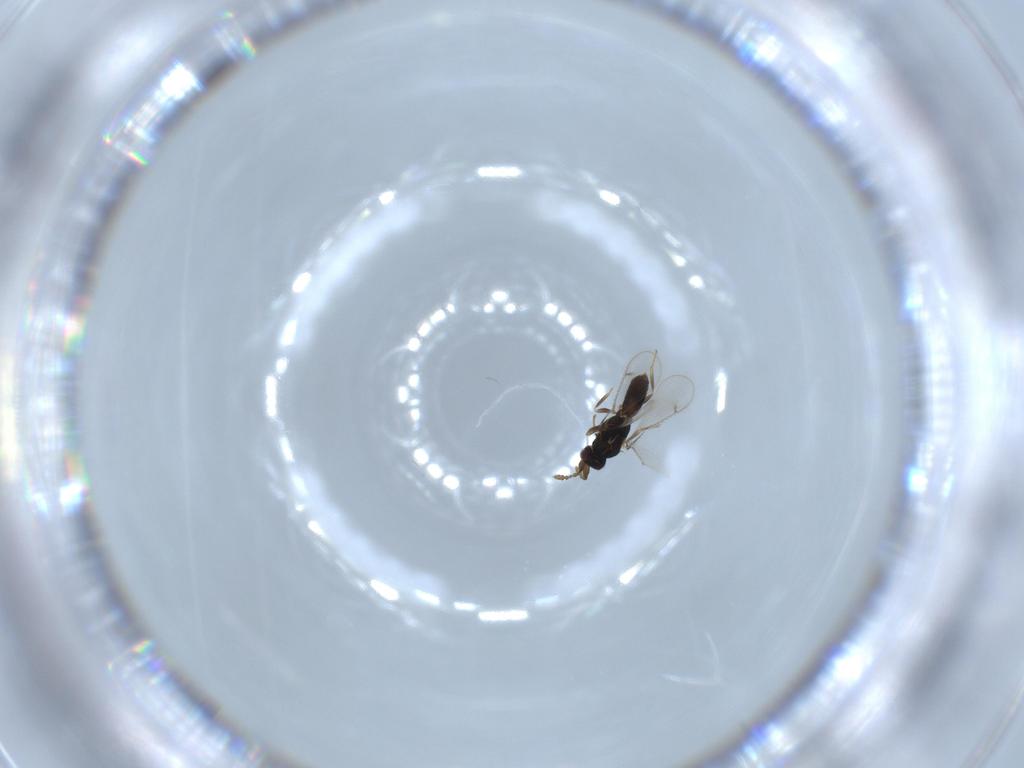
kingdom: Animalia
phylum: Arthropoda
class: Insecta
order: Hymenoptera
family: Eulophidae
